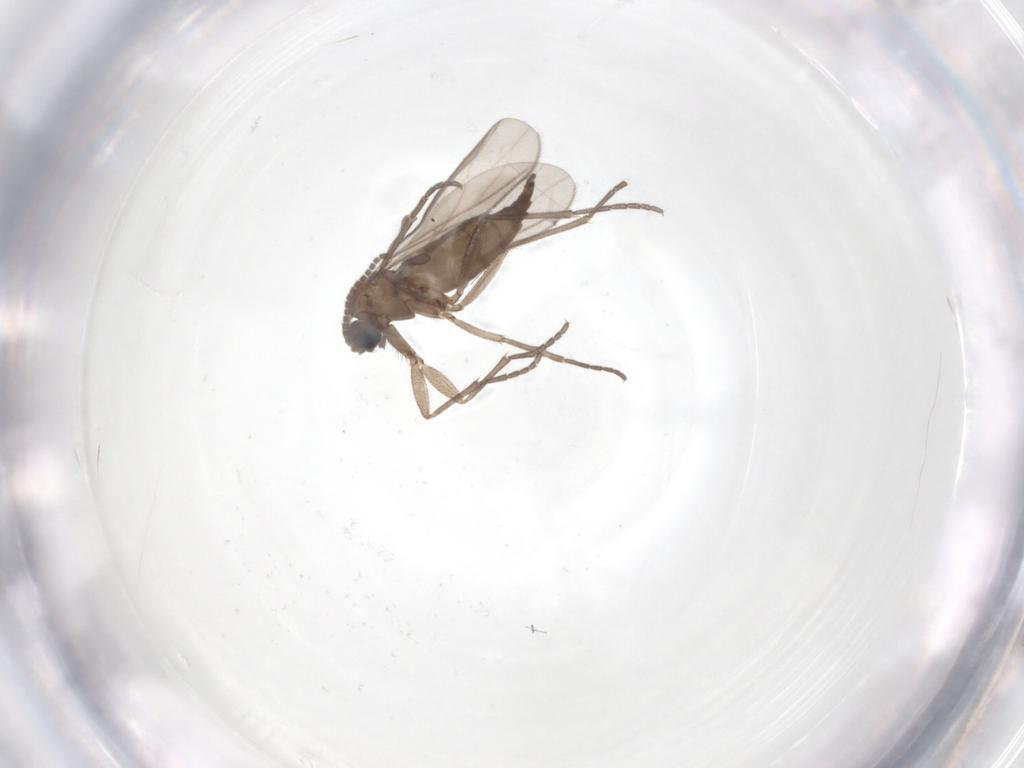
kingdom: Animalia
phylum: Arthropoda
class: Insecta
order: Diptera
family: Sciaridae
